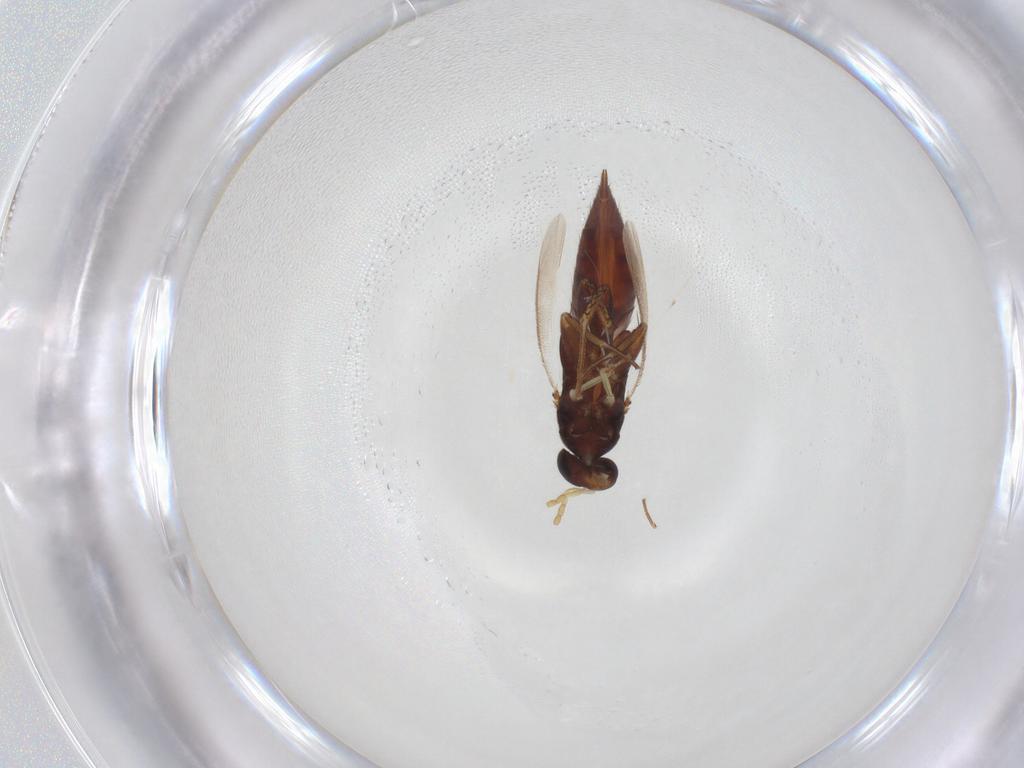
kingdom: Animalia
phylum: Arthropoda
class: Insecta
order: Hymenoptera
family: Eulophidae
